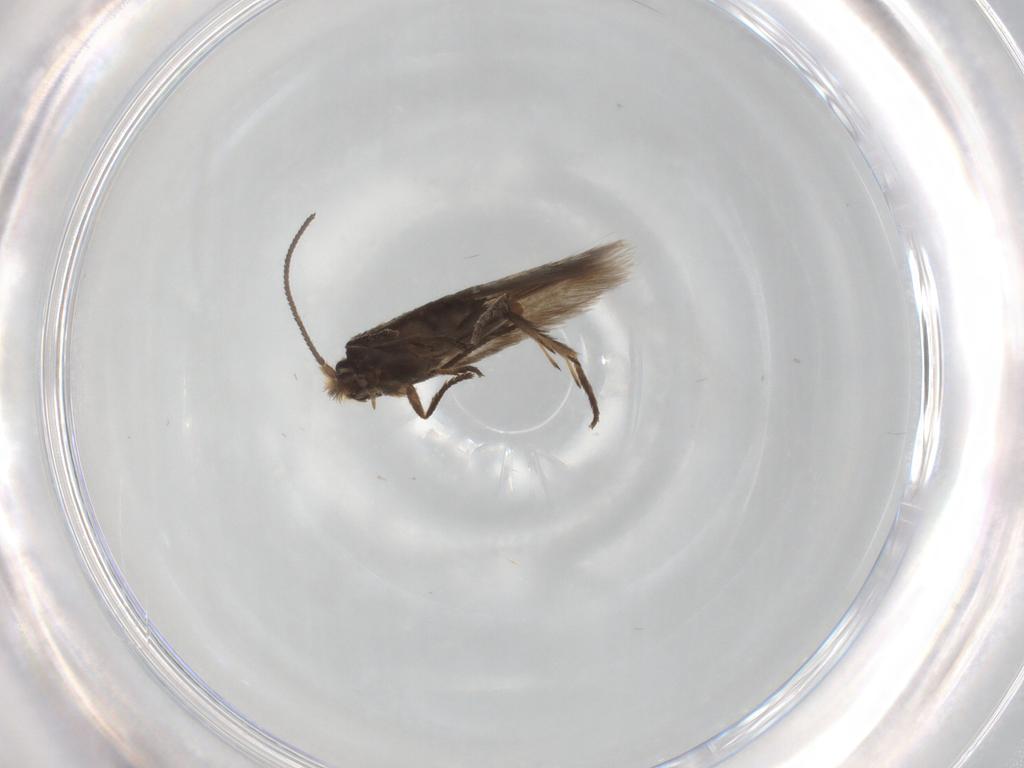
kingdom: Animalia
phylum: Arthropoda
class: Insecta
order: Lepidoptera
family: Nepticulidae
